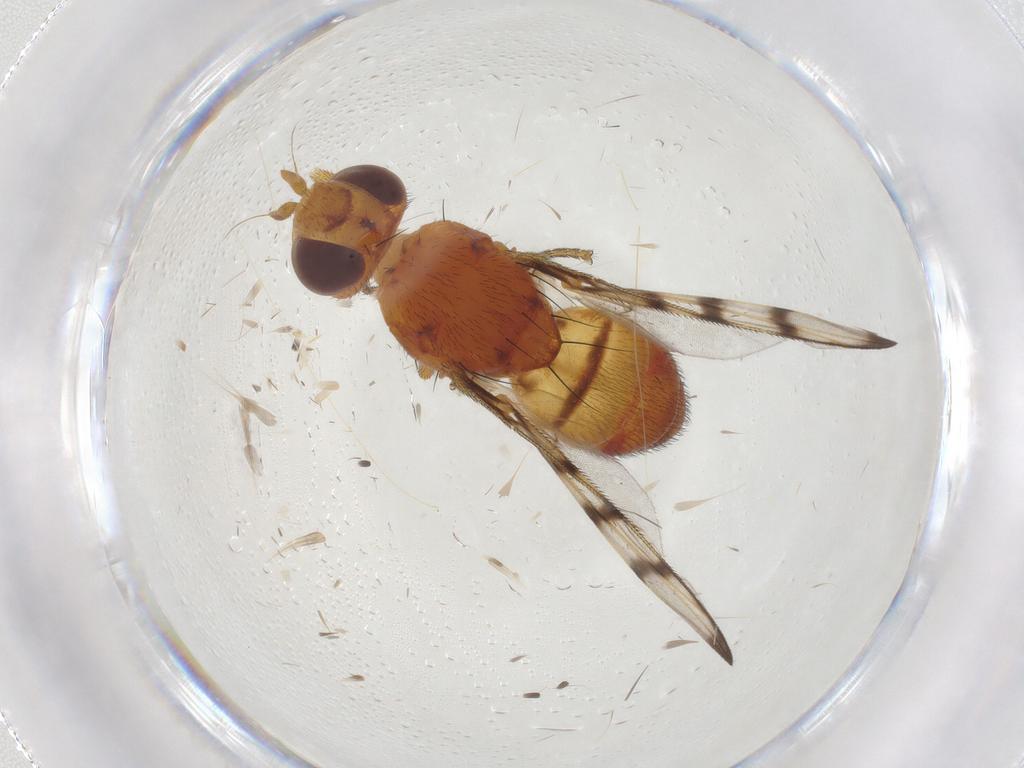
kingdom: Animalia
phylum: Arthropoda
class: Insecta
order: Diptera
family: Chyromyidae
